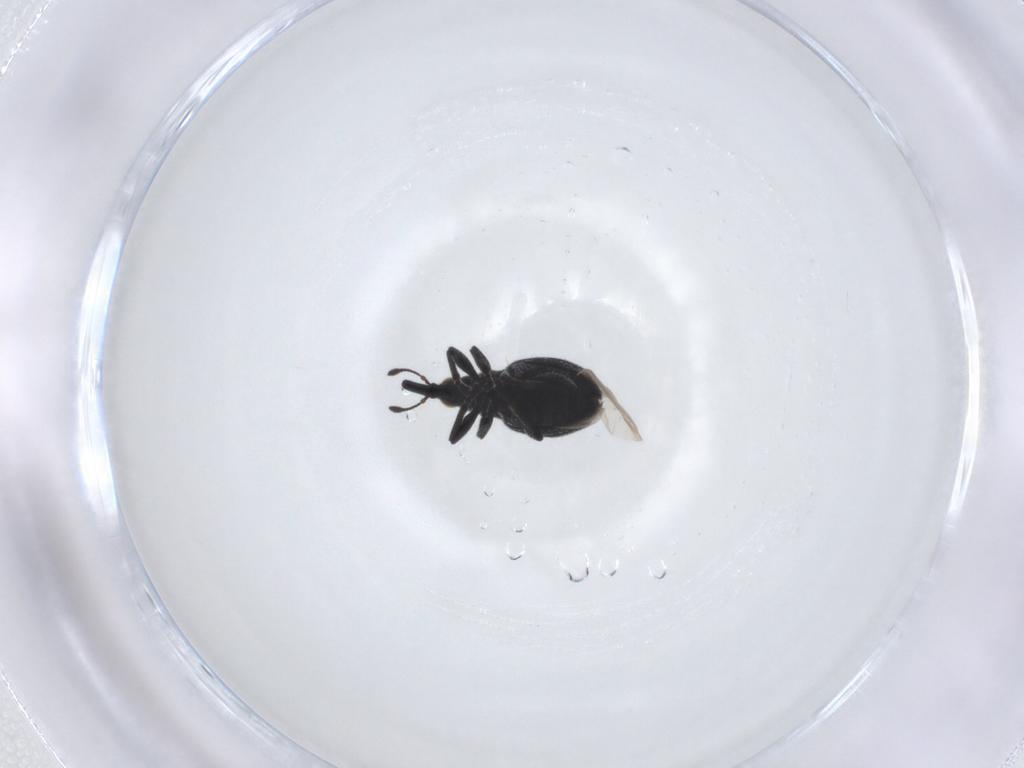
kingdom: Animalia
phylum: Arthropoda
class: Insecta
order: Coleoptera
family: Brentidae
